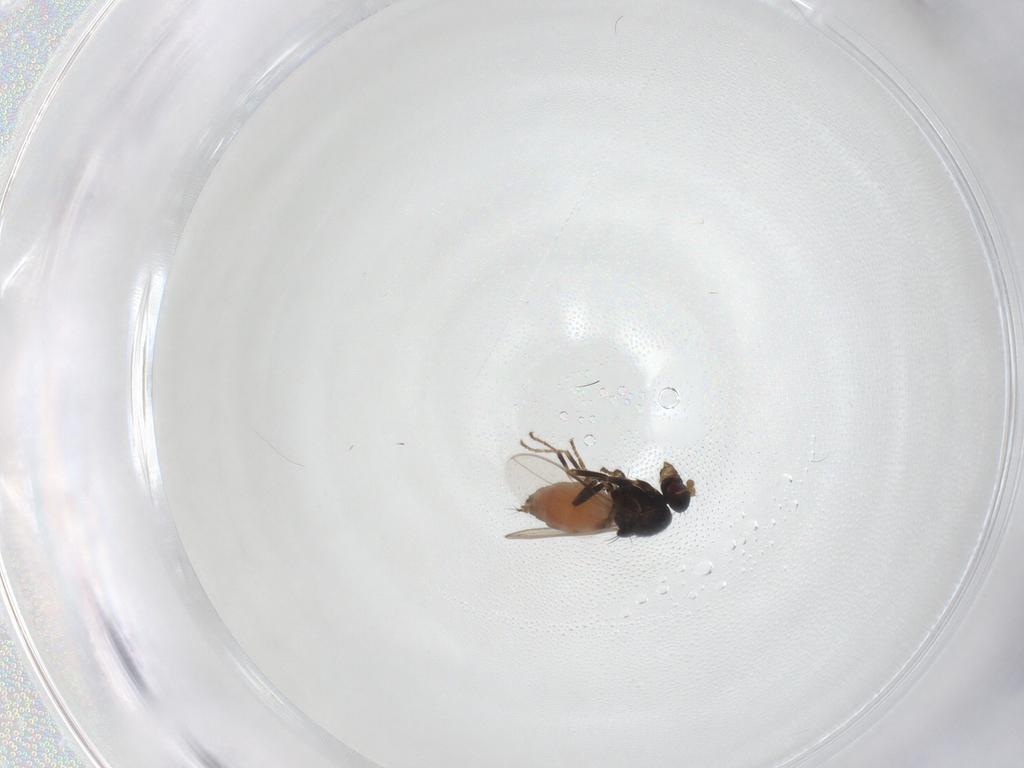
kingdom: Animalia
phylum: Arthropoda
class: Insecta
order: Diptera
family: Sphaeroceridae
